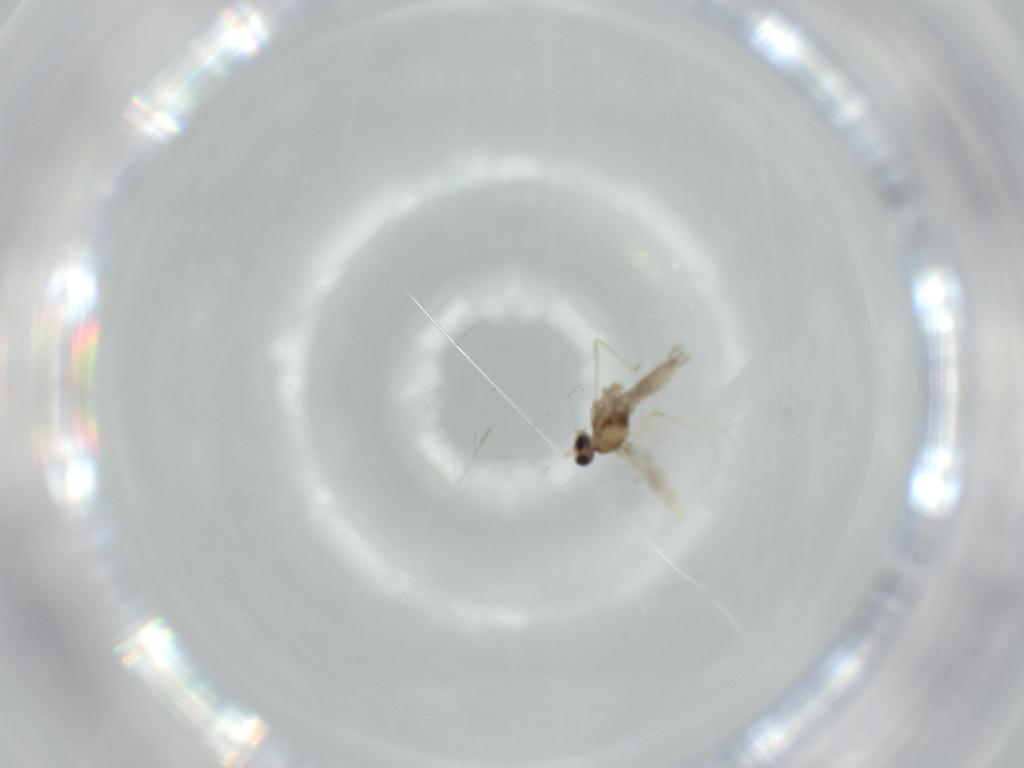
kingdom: Animalia
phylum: Arthropoda
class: Insecta
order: Diptera
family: Cecidomyiidae
